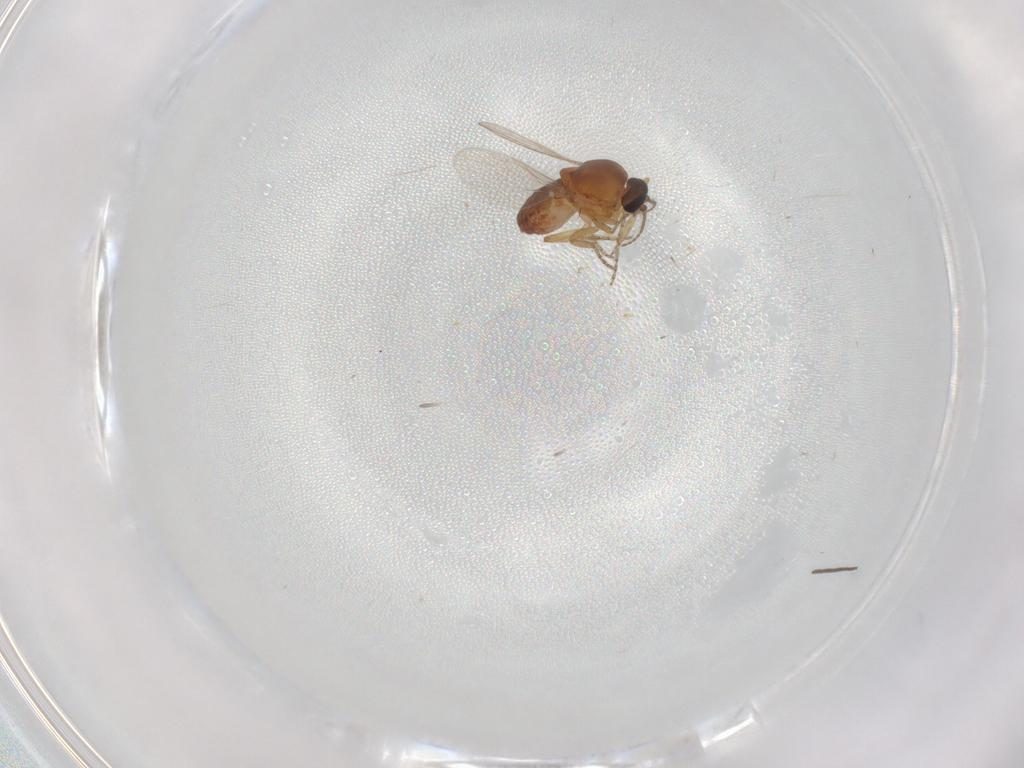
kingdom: Animalia
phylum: Arthropoda
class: Insecta
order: Diptera
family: Ceratopogonidae
